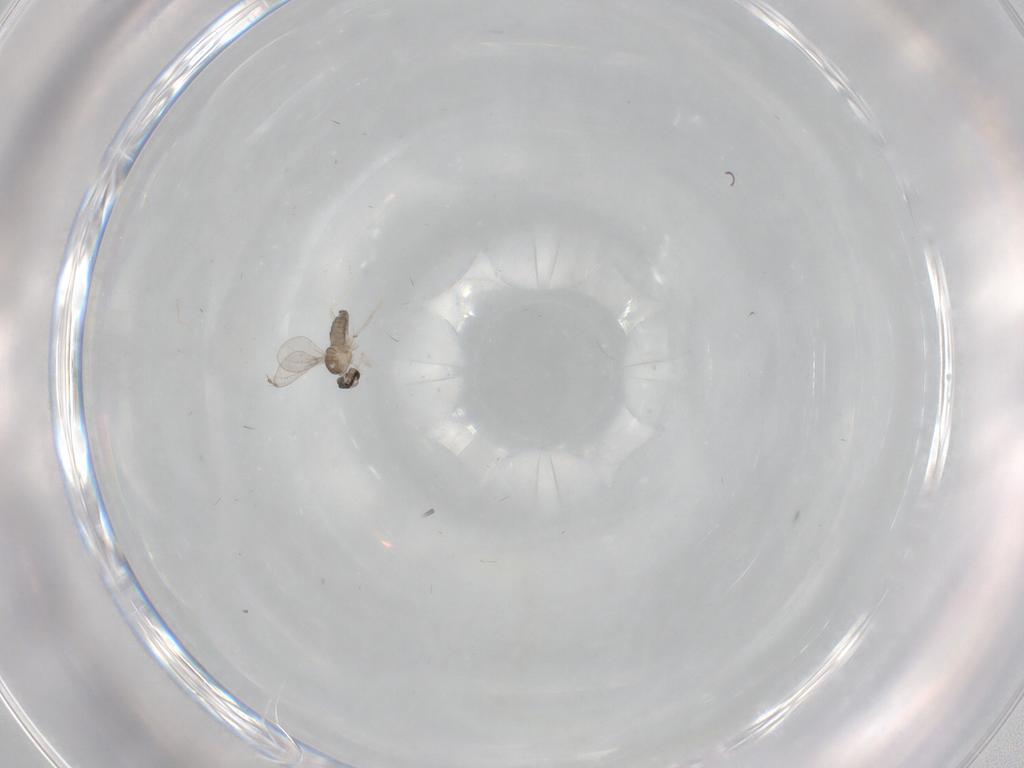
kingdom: Animalia
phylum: Arthropoda
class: Insecta
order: Diptera
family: Cecidomyiidae
